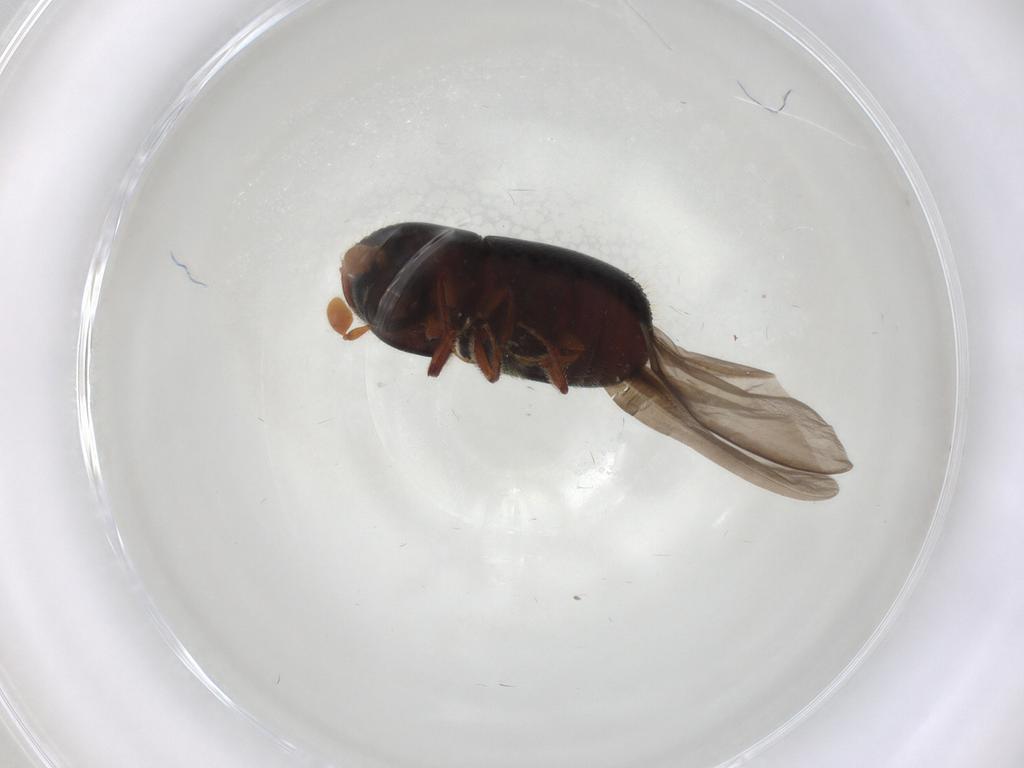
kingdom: Animalia
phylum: Arthropoda
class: Insecta
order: Coleoptera
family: Curculionidae
